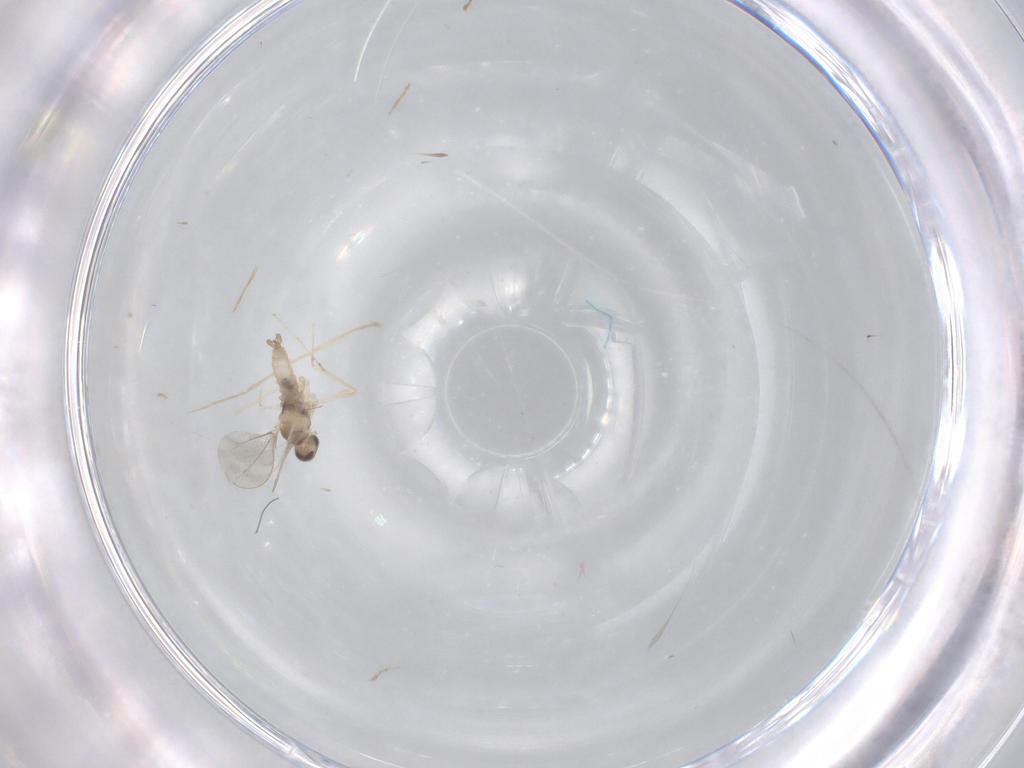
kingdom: Animalia
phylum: Arthropoda
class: Insecta
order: Diptera
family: Cecidomyiidae
